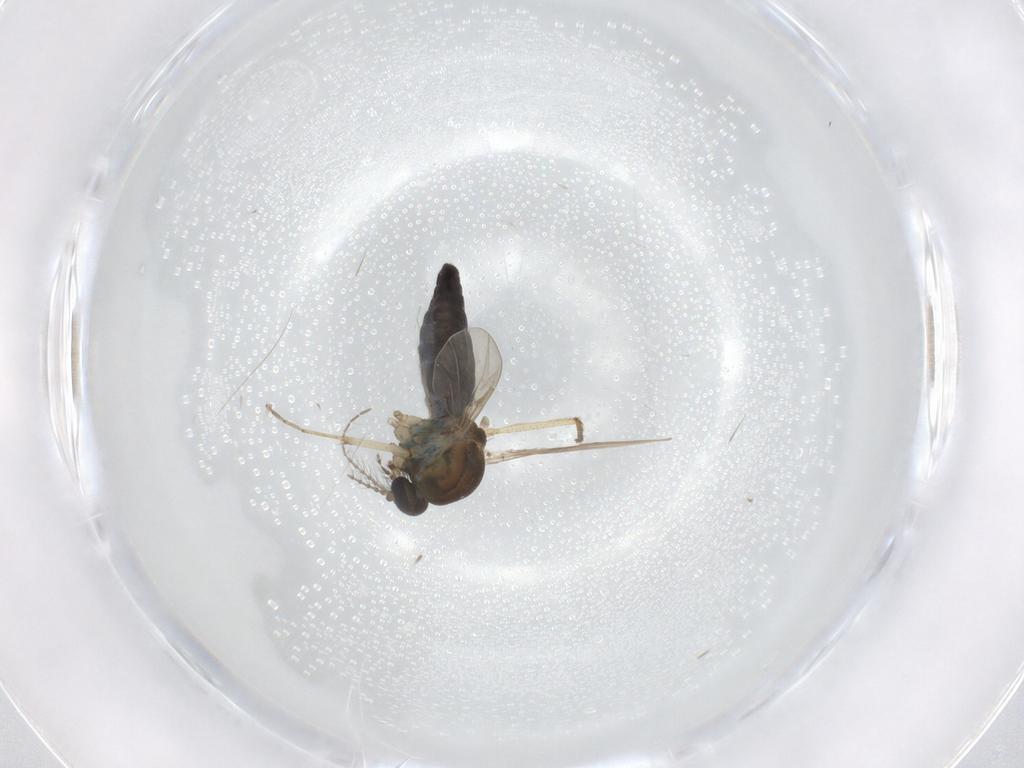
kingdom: Animalia
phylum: Arthropoda
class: Insecta
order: Diptera
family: Ceratopogonidae
